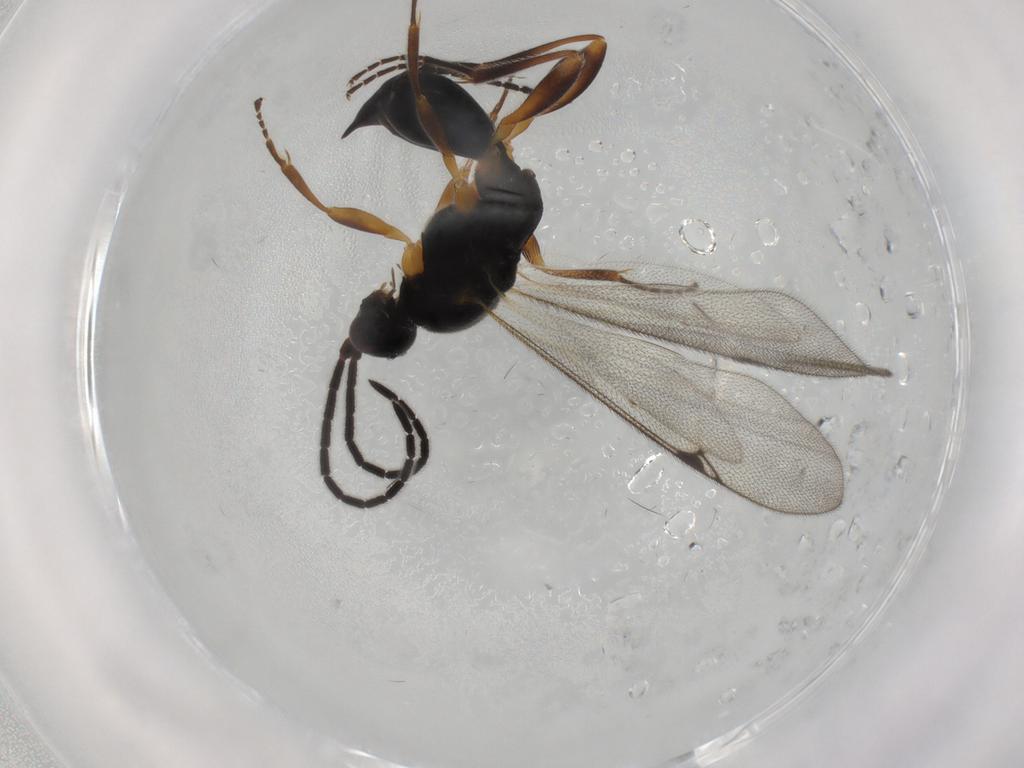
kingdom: Animalia
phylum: Arthropoda
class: Insecta
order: Hymenoptera
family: Proctotrupidae
